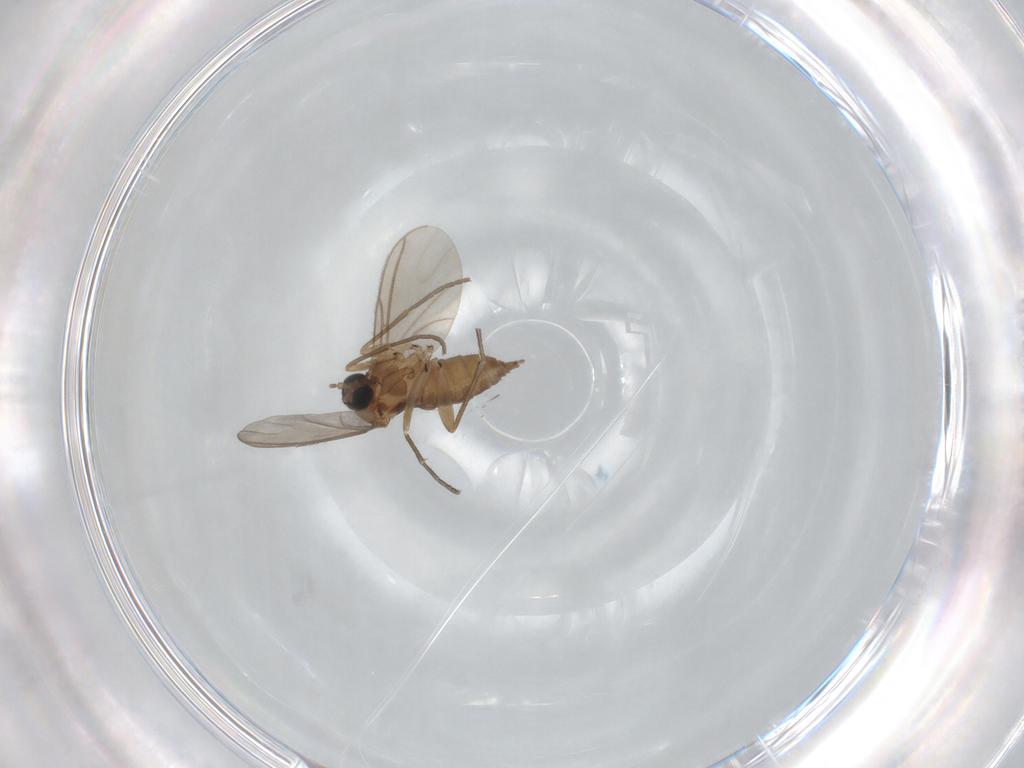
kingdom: Animalia
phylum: Arthropoda
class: Insecta
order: Diptera
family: Sciaridae
